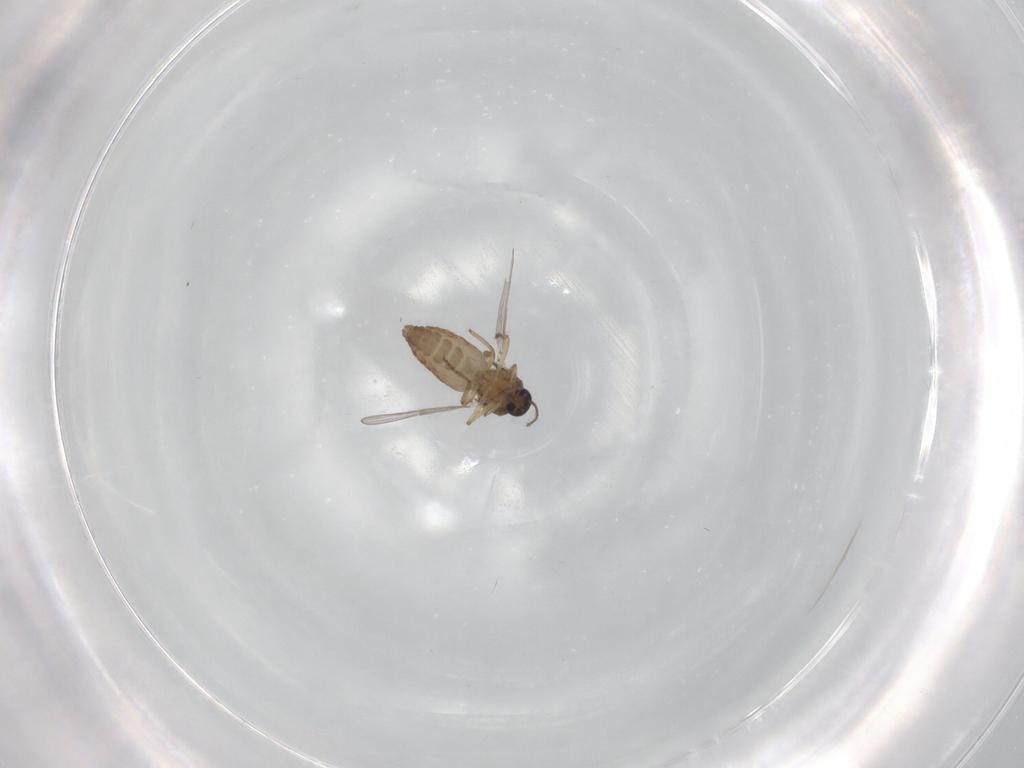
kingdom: Animalia
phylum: Arthropoda
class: Insecta
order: Diptera
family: Ceratopogonidae
